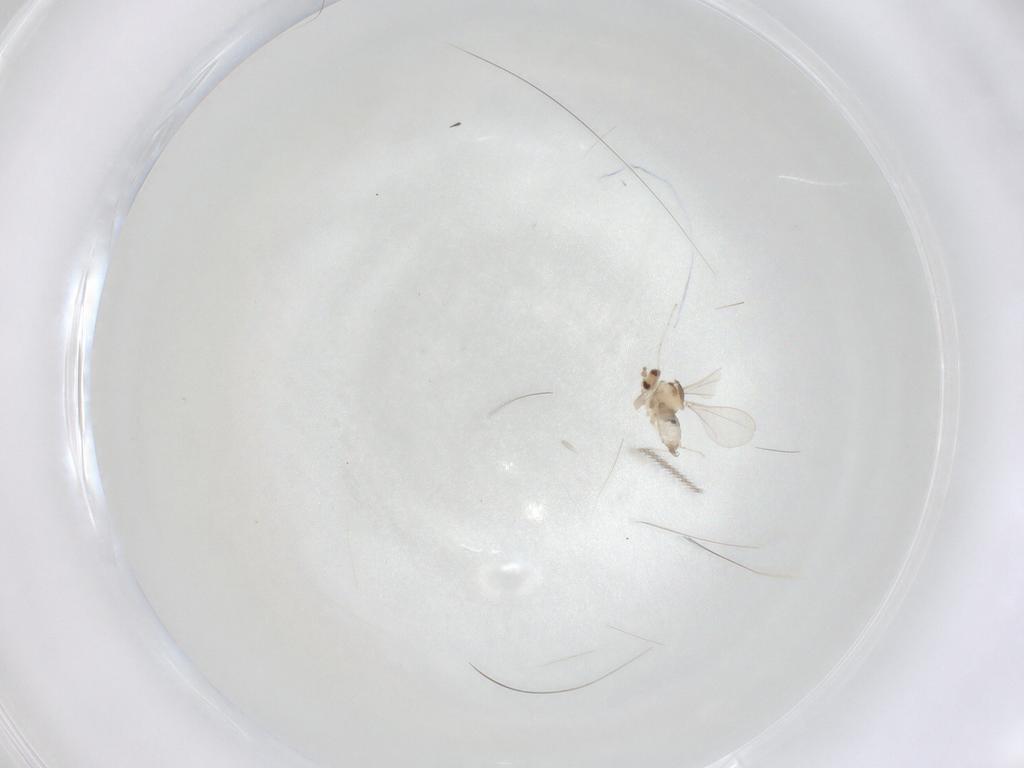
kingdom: Animalia
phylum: Arthropoda
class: Insecta
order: Diptera
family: Cecidomyiidae
